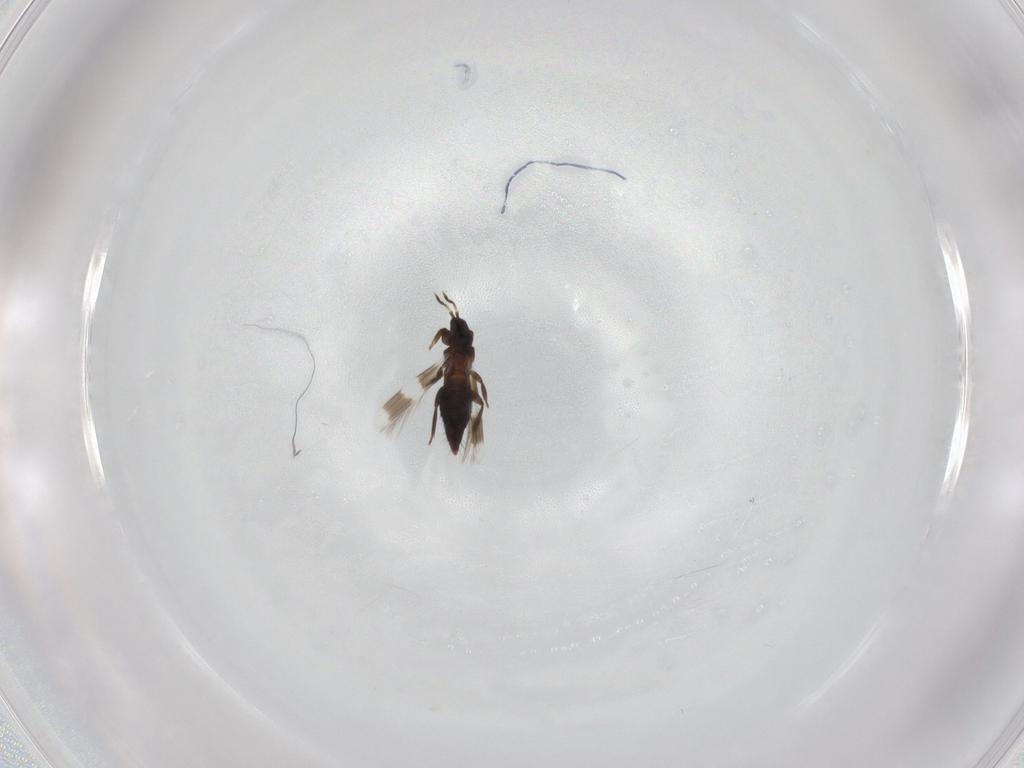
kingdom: Animalia
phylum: Arthropoda
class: Insecta
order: Thysanoptera
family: Aeolothripidae
